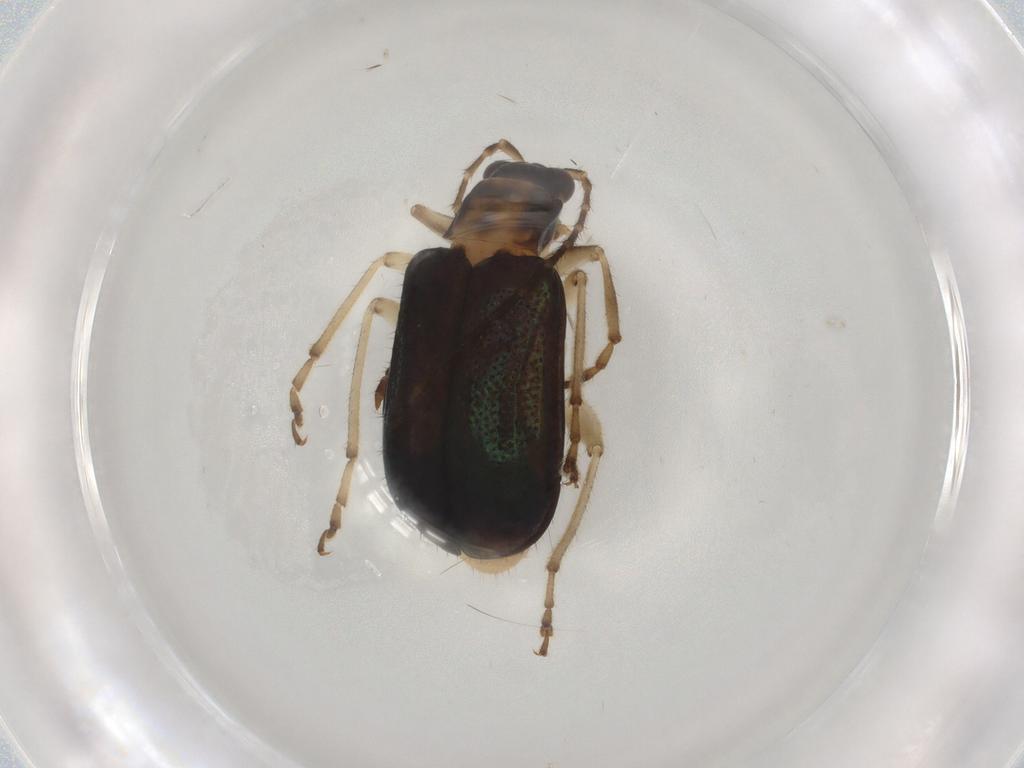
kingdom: Animalia
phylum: Arthropoda
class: Insecta
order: Coleoptera
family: Chrysomelidae
